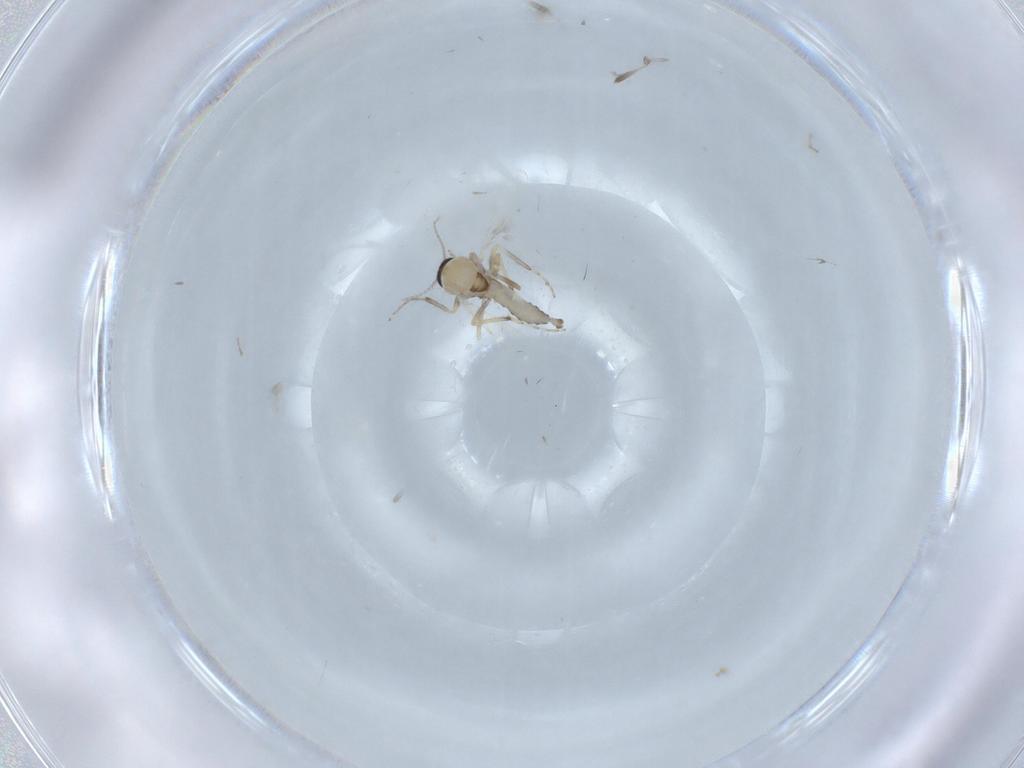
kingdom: Animalia
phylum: Arthropoda
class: Insecta
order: Diptera
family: Ceratopogonidae
